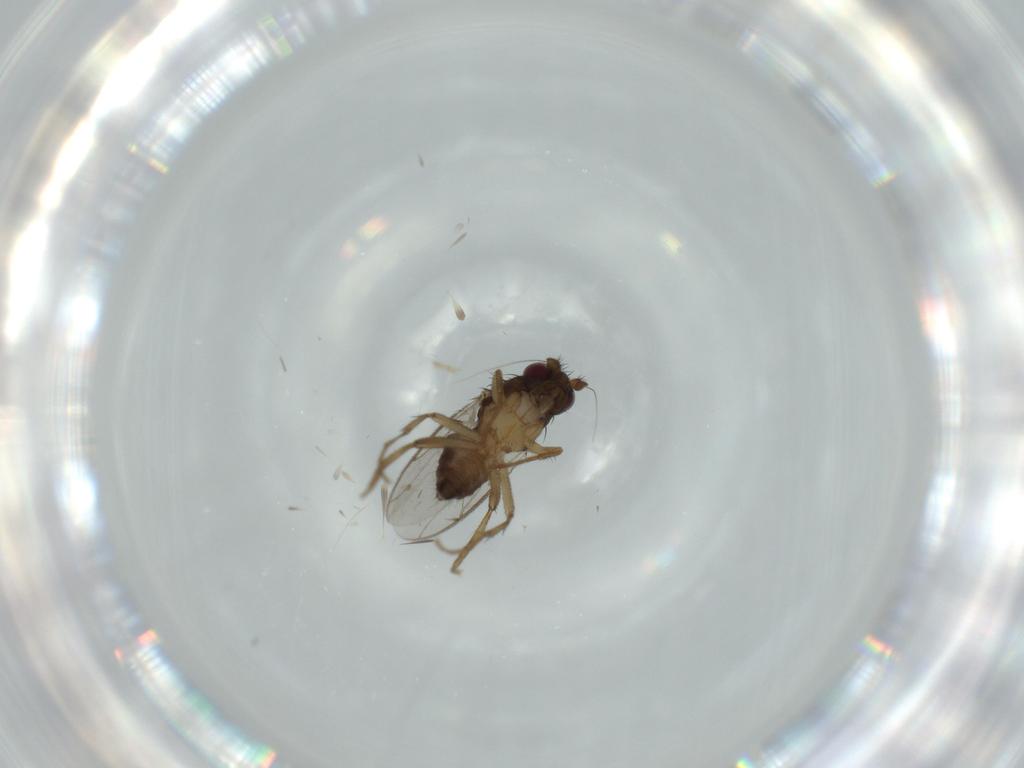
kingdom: Animalia
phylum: Arthropoda
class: Insecta
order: Diptera
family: Sphaeroceridae
